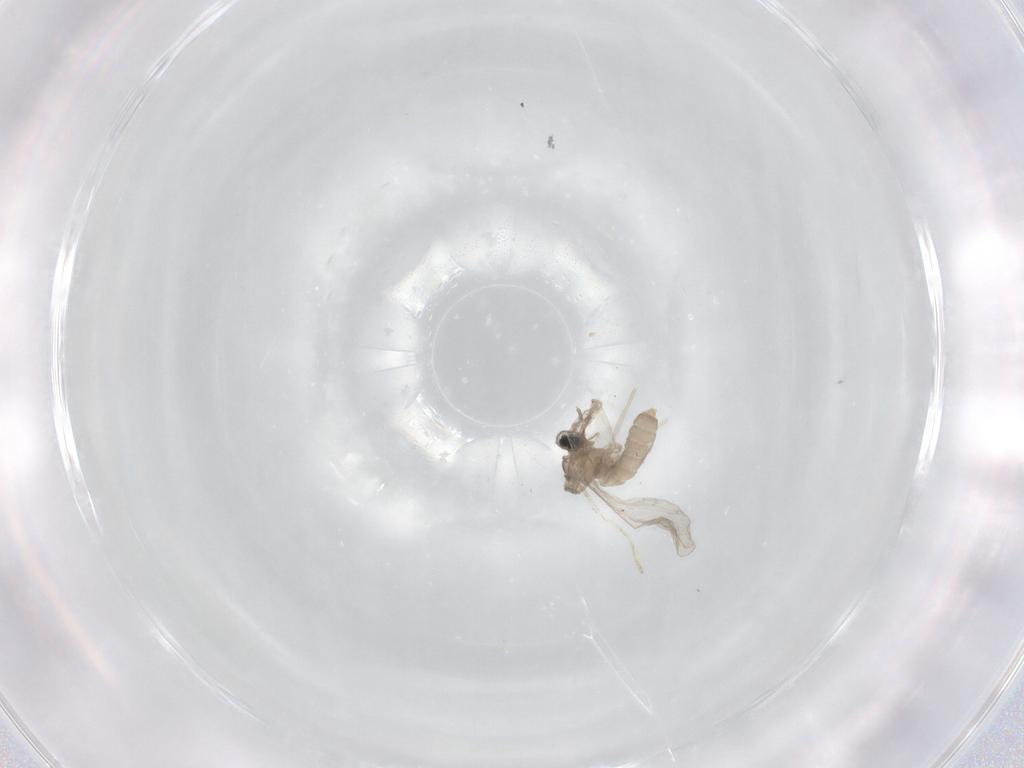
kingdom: Animalia
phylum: Arthropoda
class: Insecta
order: Diptera
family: Cecidomyiidae
